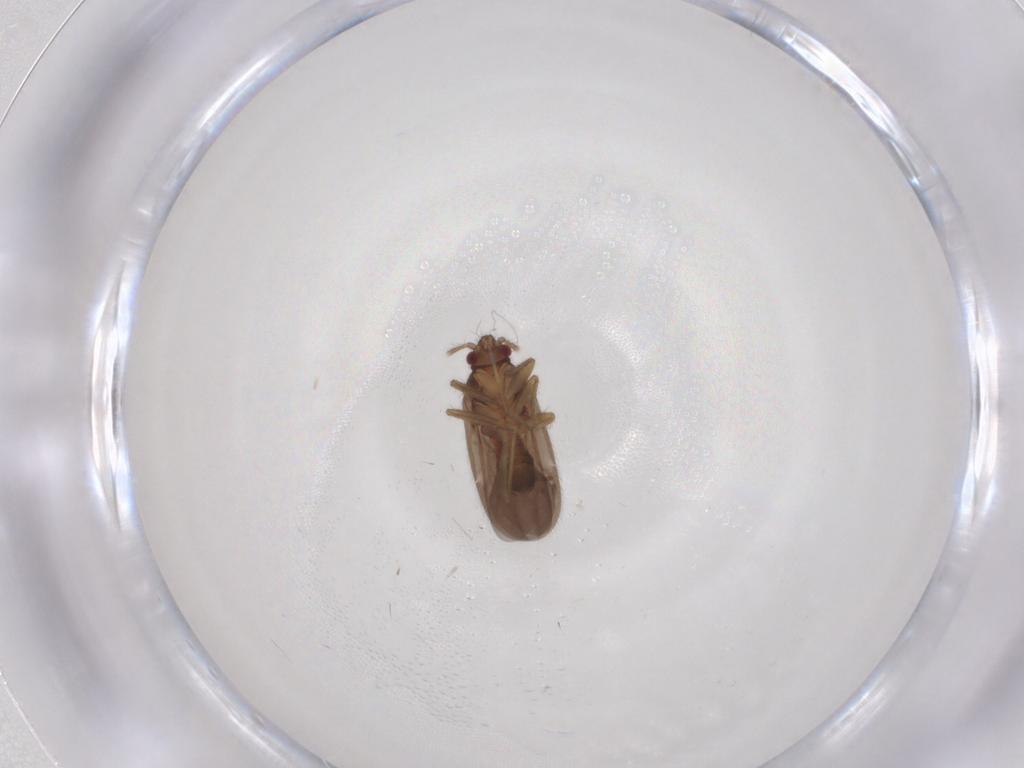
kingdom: Animalia
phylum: Arthropoda
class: Insecta
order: Hemiptera
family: Ceratocombidae
